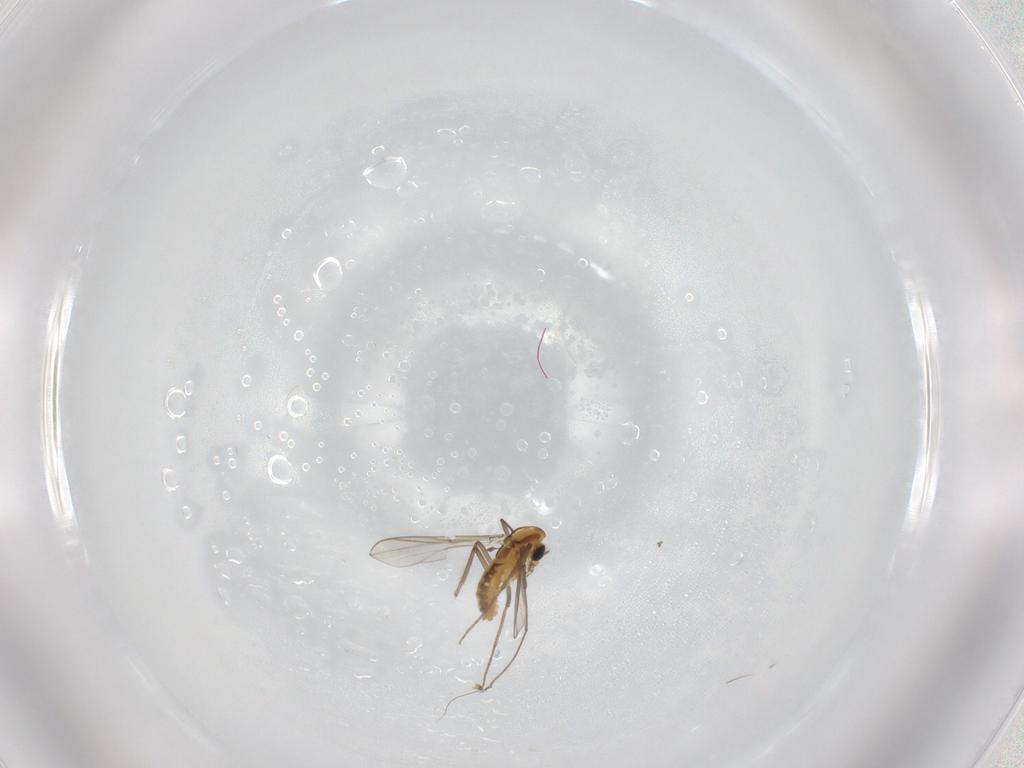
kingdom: Animalia
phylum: Arthropoda
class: Insecta
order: Diptera
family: Chironomidae
